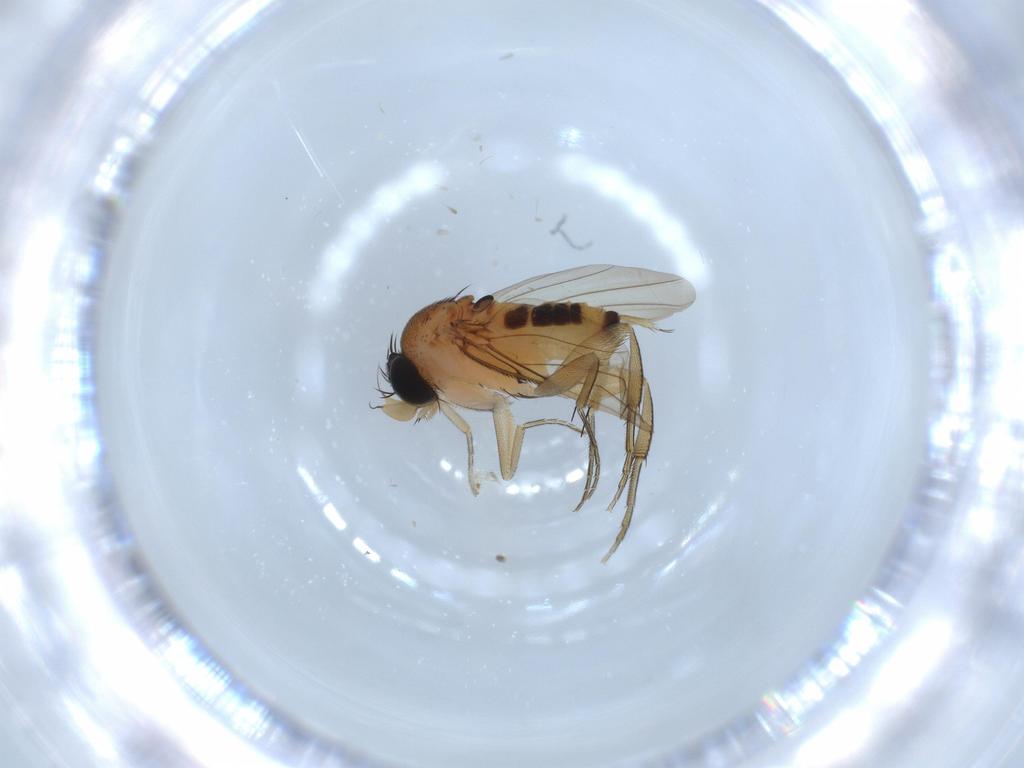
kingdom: Animalia
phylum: Arthropoda
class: Insecta
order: Diptera
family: Phoridae
